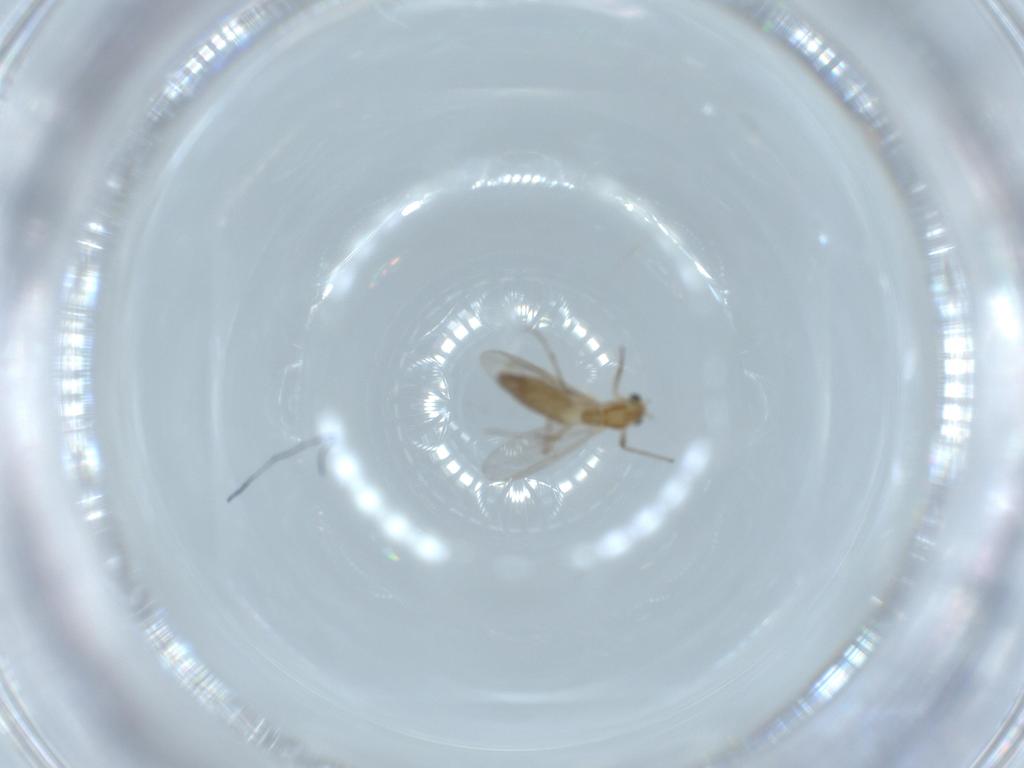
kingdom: Animalia
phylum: Arthropoda
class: Insecta
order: Diptera
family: Chironomidae
